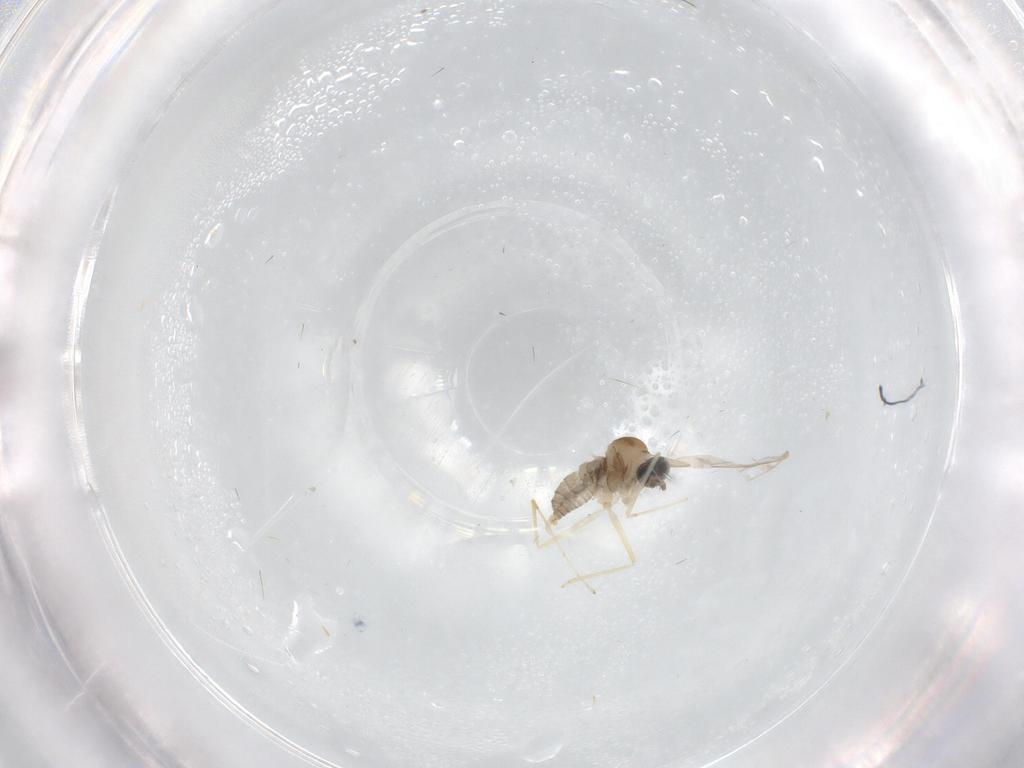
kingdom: Animalia
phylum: Arthropoda
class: Insecta
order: Diptera
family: Cecidomyiidae
